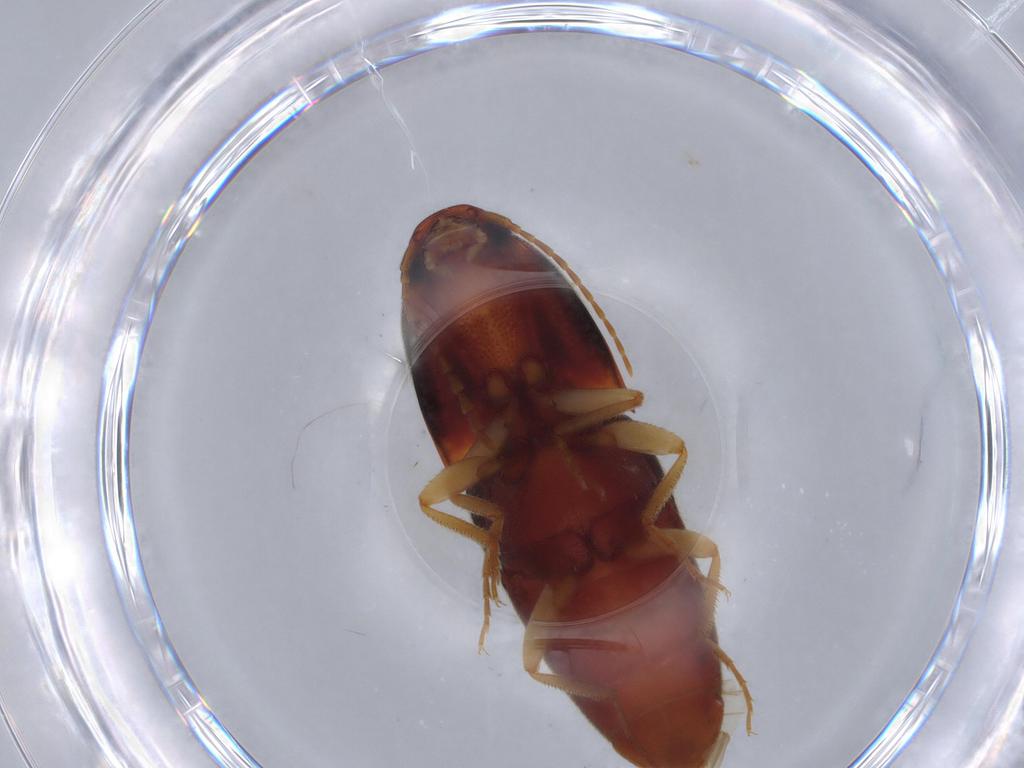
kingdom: Animalia
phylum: Arthropoda
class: Insecta
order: Coleoptera
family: Elateridae
